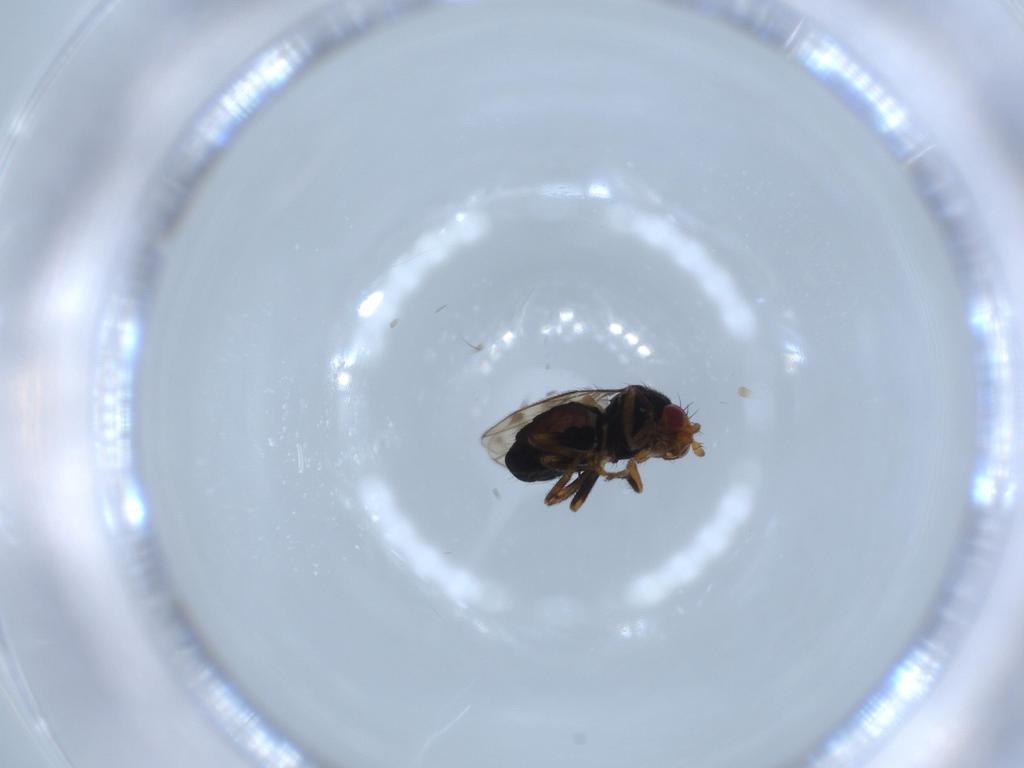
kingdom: Animalia
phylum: Arthropoda
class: Insecta
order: Diptera
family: Sphaeroceridae
